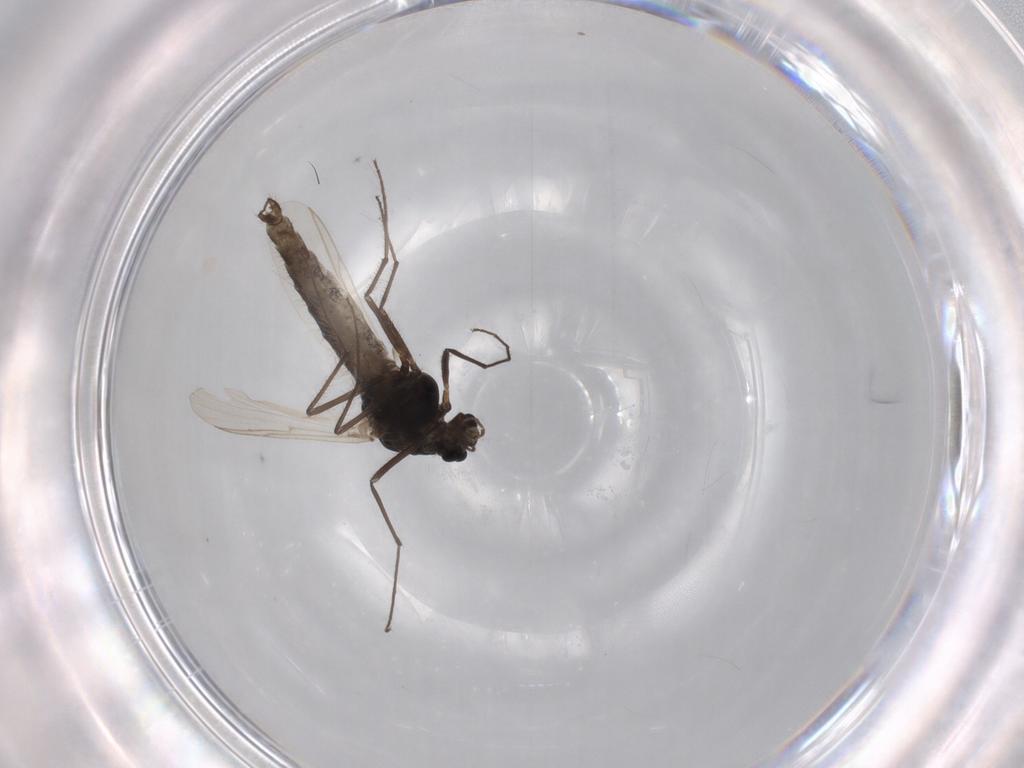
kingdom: Animalia
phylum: Arthropoda
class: Insecta
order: Diptera
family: Chironomidae
